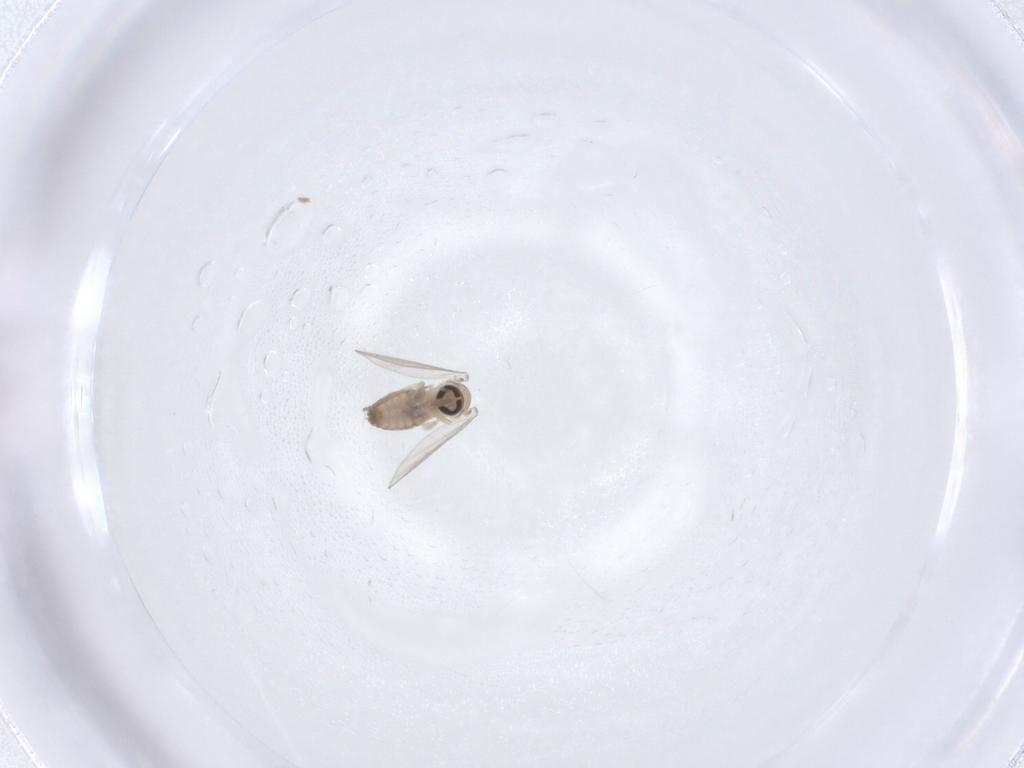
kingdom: Animalia
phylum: Arthropoda
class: Insecta
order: Diptera
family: Psychodidae
